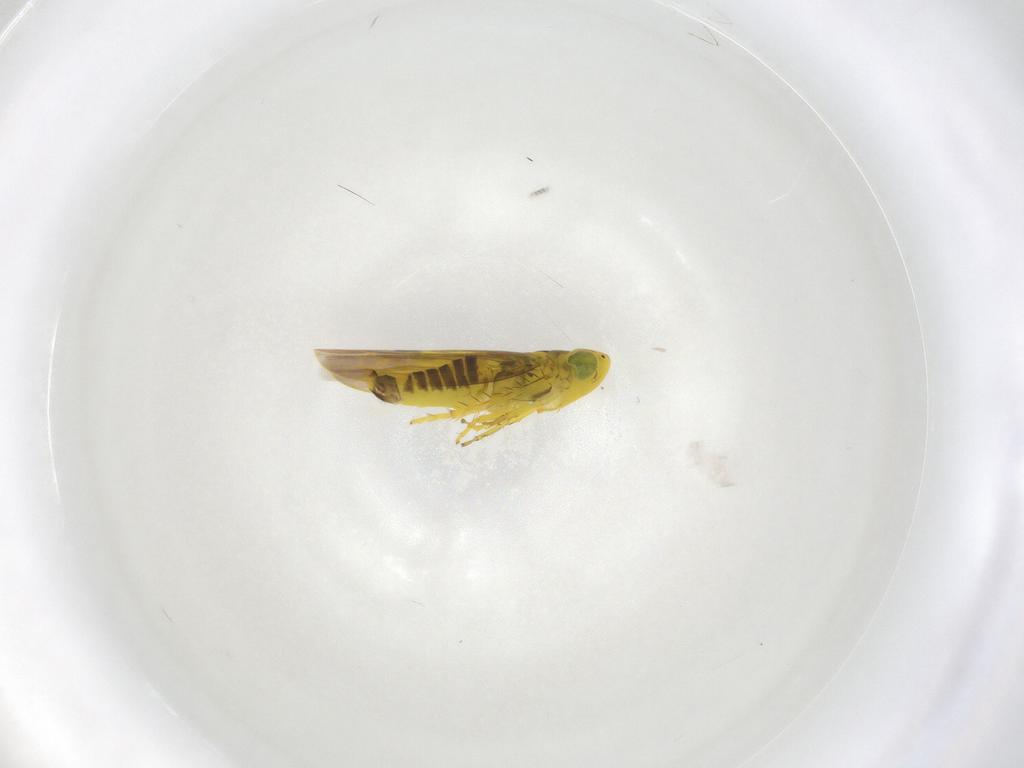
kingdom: Animalia
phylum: Arthropoda
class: Insecta
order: Hemiptera
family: Cicadellidae
